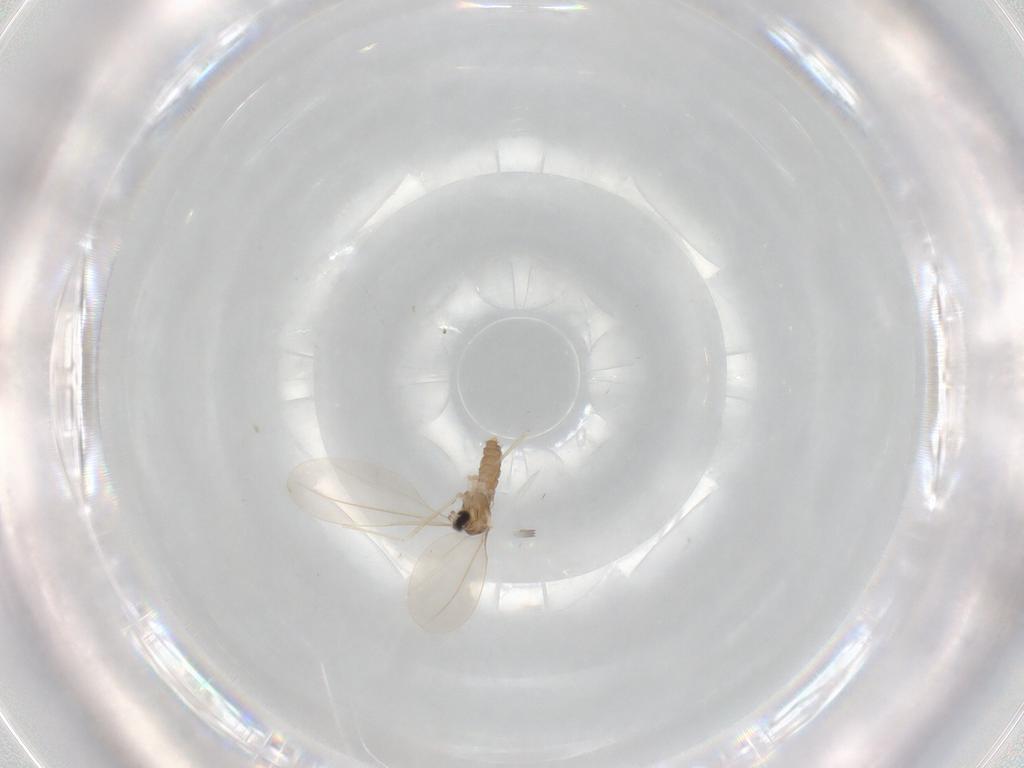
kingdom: Animalia
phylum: Arthropoda
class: Insecta
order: Diptera
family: Cecidomyiidae
